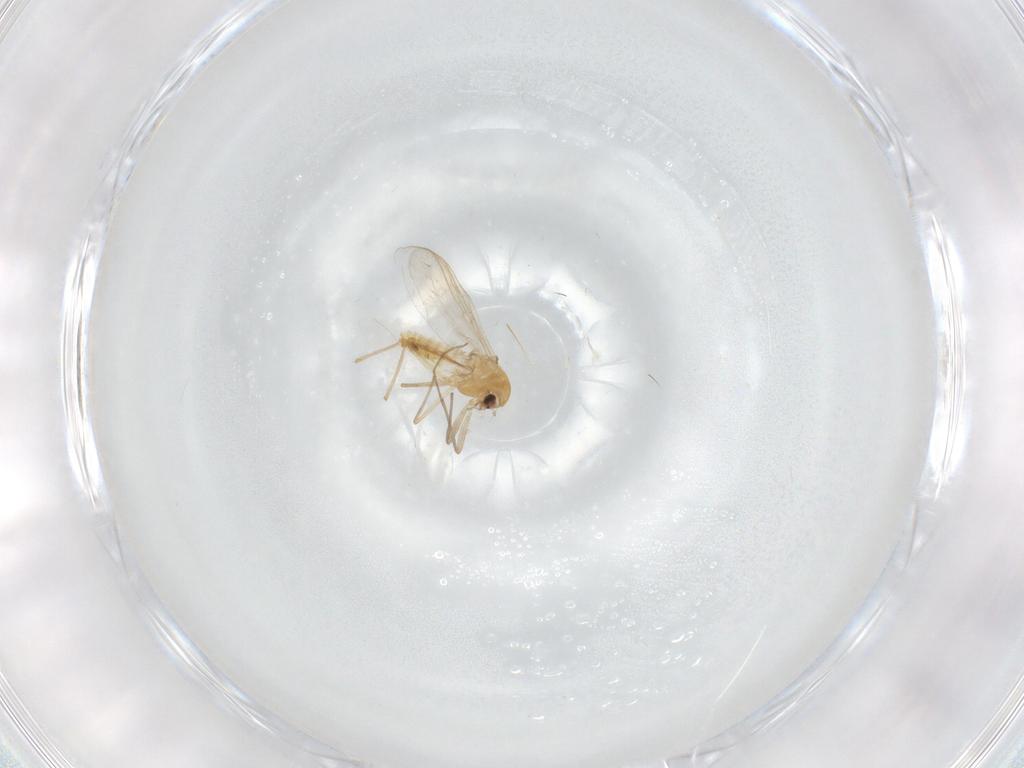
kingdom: Animalia
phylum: Arthropoda
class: Insecta
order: Diptera
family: Chironomidae
